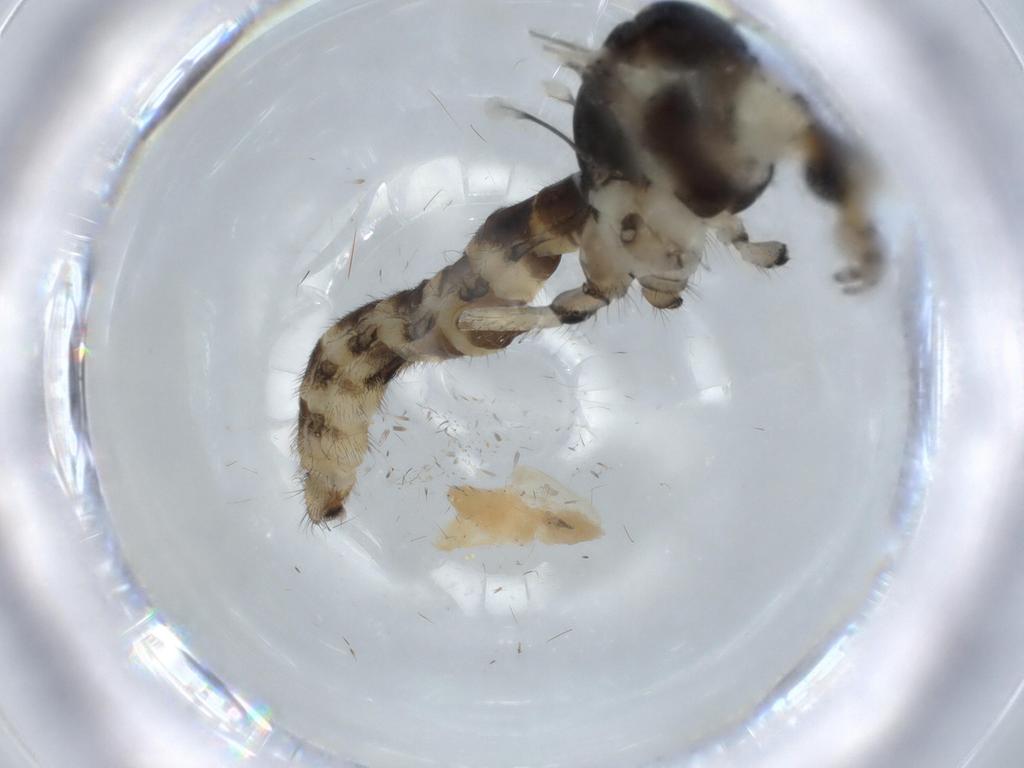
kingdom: Animalia
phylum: Arthropoda
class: Insecta
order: Diptera
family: Limoniidae
